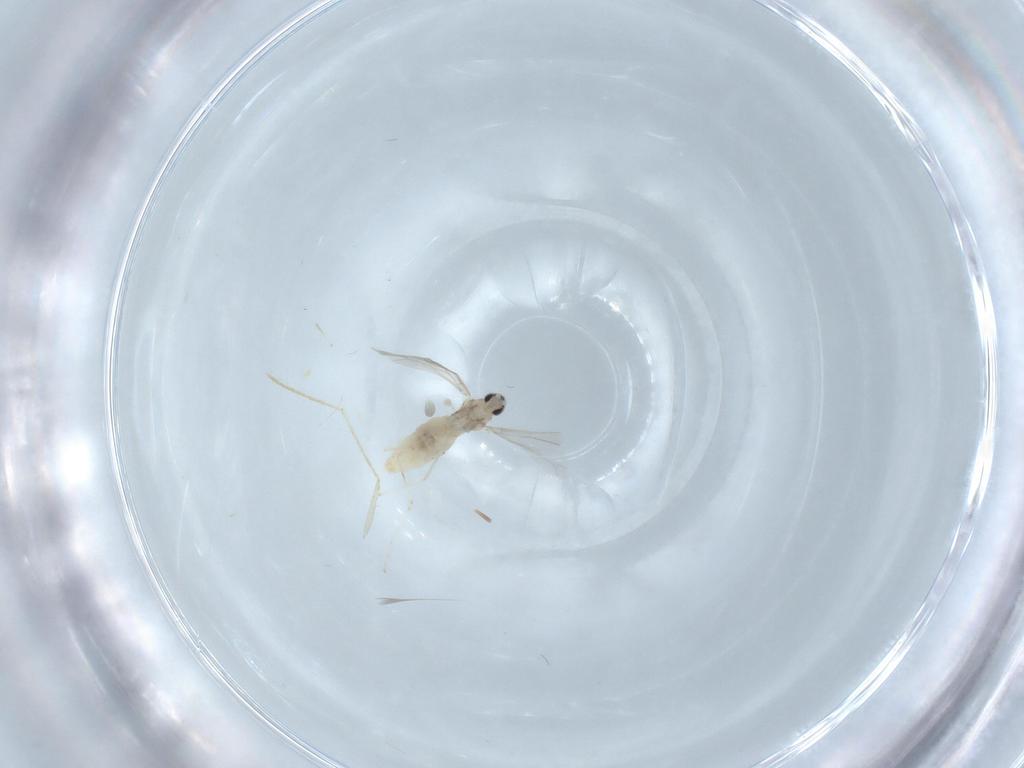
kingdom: Animalia
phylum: Arthropoda
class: Insecta
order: Diptera
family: Cecidomyiidae
